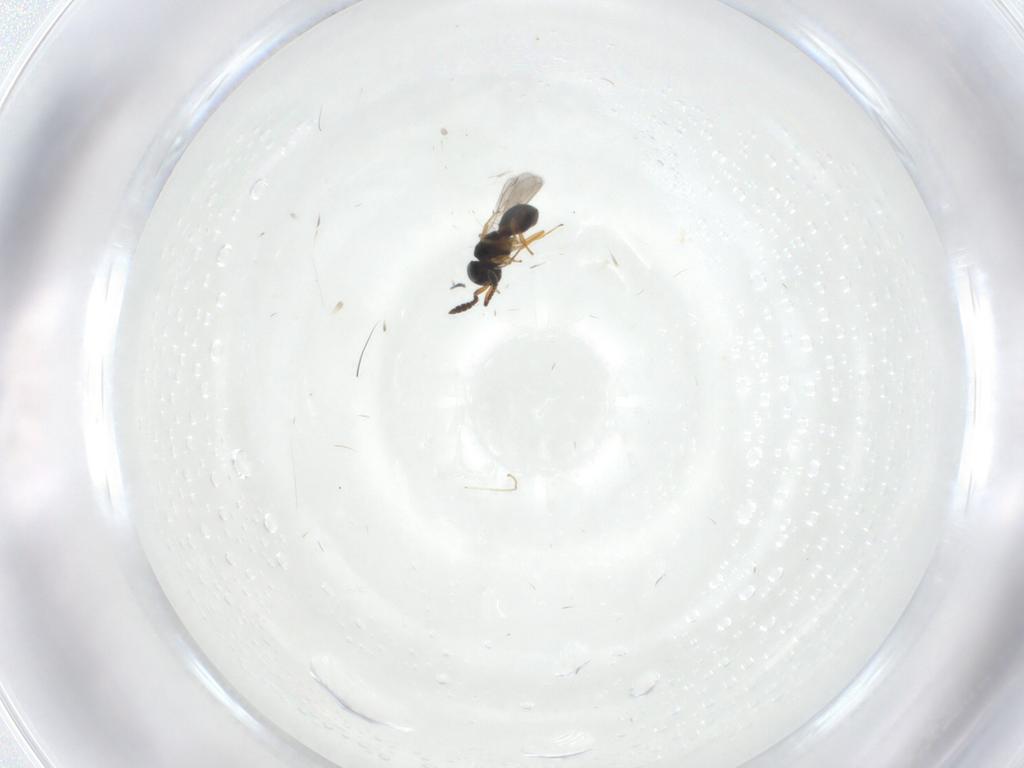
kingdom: Animalia
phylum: Arthropoda
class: Insecta
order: Hymenoptera
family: Scelionidae
